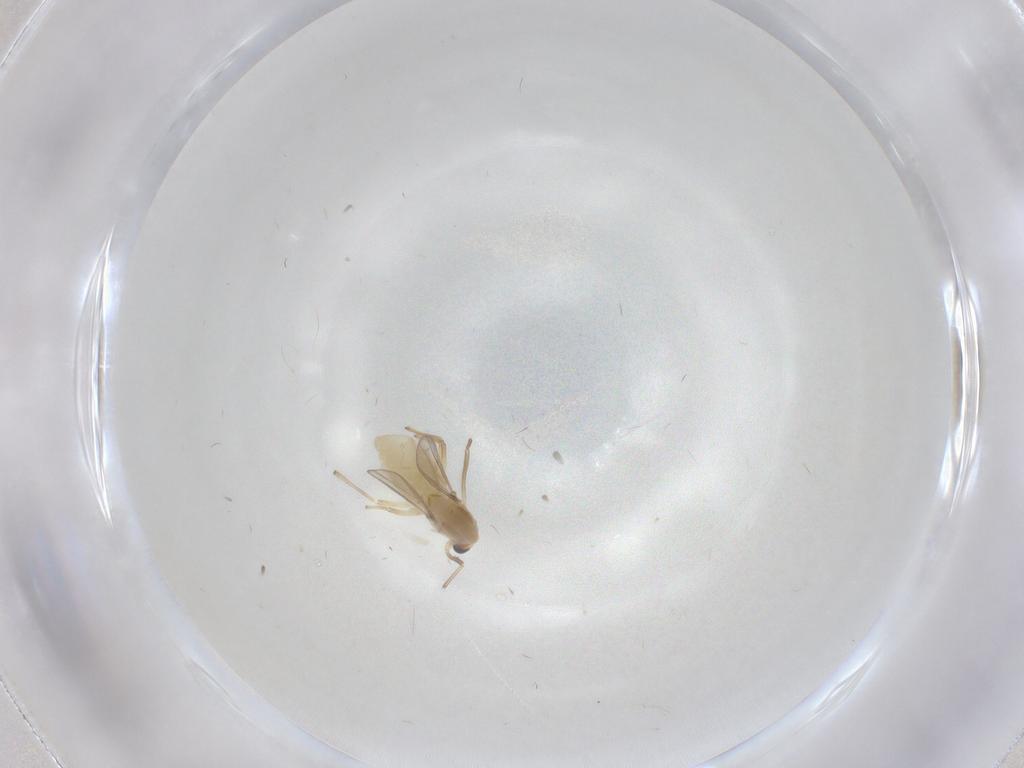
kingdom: Animalia
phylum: Arthropoda
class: Insecta
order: Diptera
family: Chironomidae
